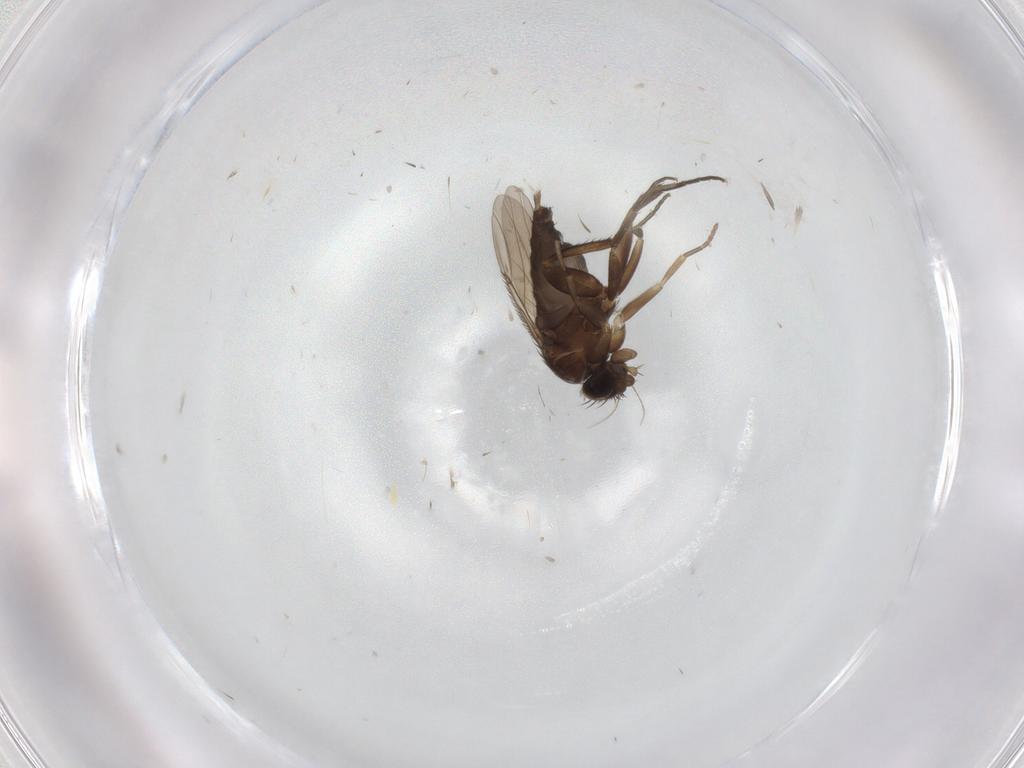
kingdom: Animalia
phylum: Arthropoda
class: Insecta
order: Diptera
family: Phoridae
